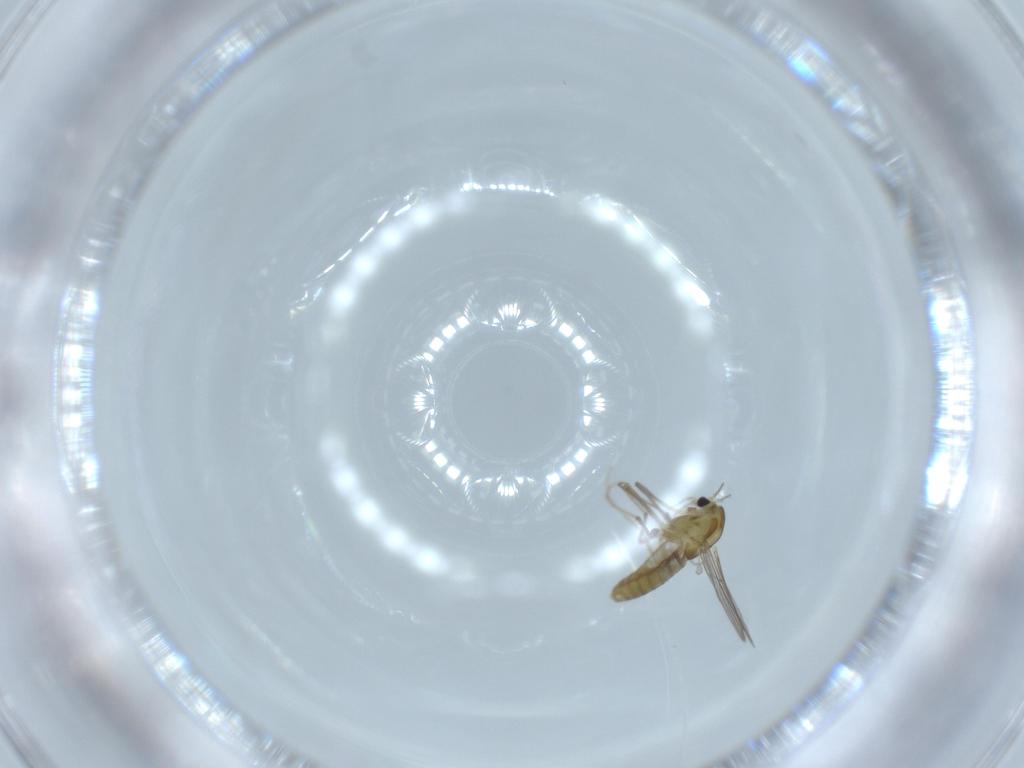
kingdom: Animalia
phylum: Arthropoda
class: Insecta
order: Diptera
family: Chironomidae
